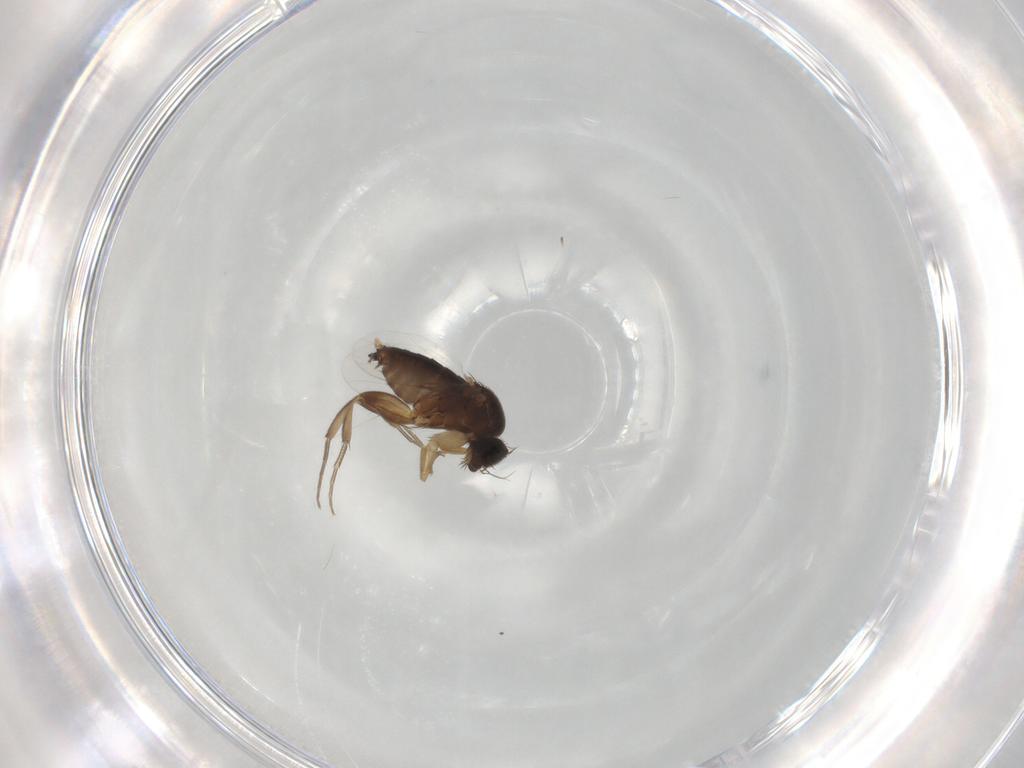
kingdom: Animalia
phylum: Arthropoda
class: Insecta
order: Diptera
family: Phoridae
